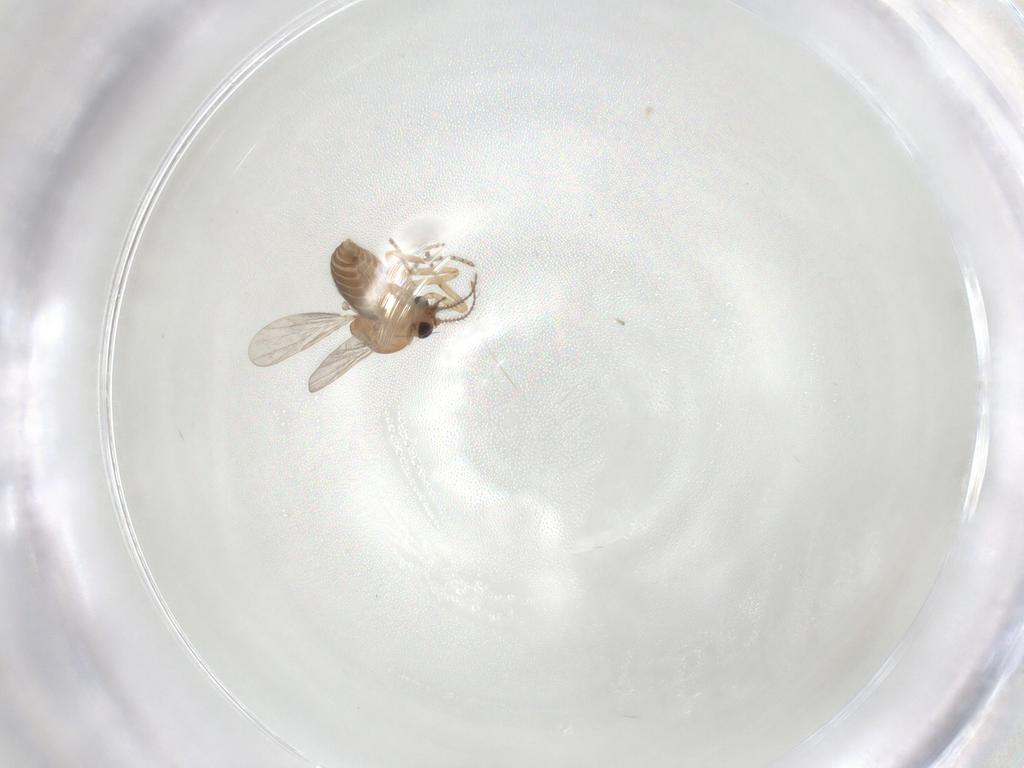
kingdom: Animalia
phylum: Arthropoda
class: Insecta
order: Diptera
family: Ceratopogonidae
